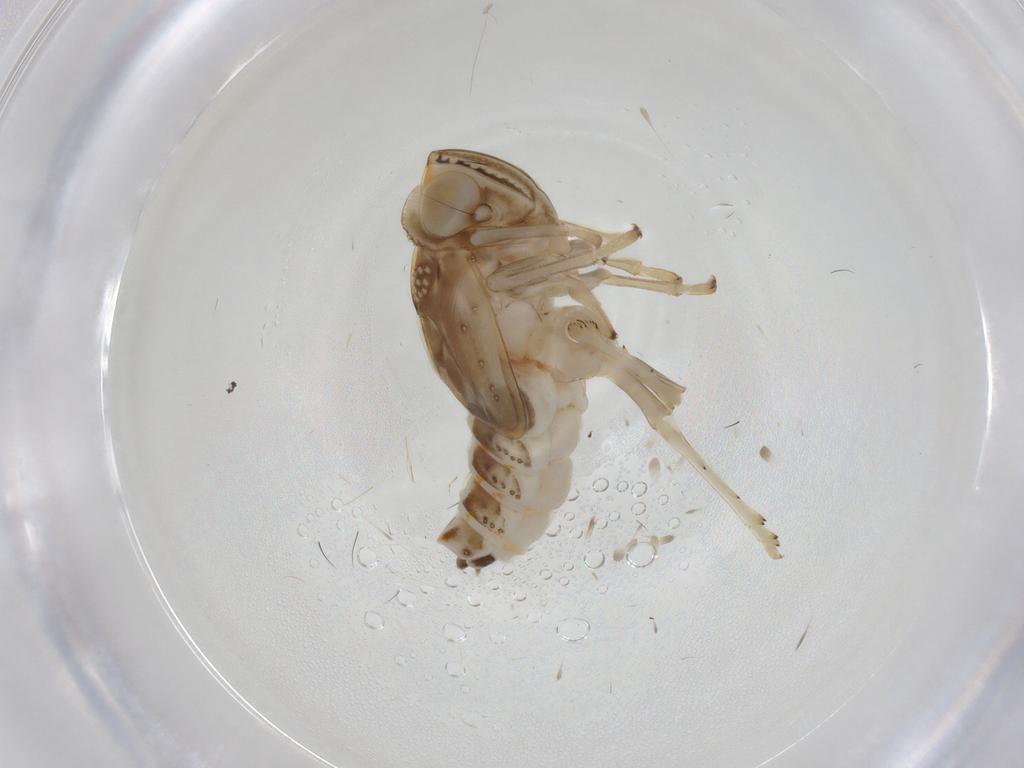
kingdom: Animalia
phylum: Arthropoda
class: Insecta
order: Hemiptera
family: Nogodinidae
